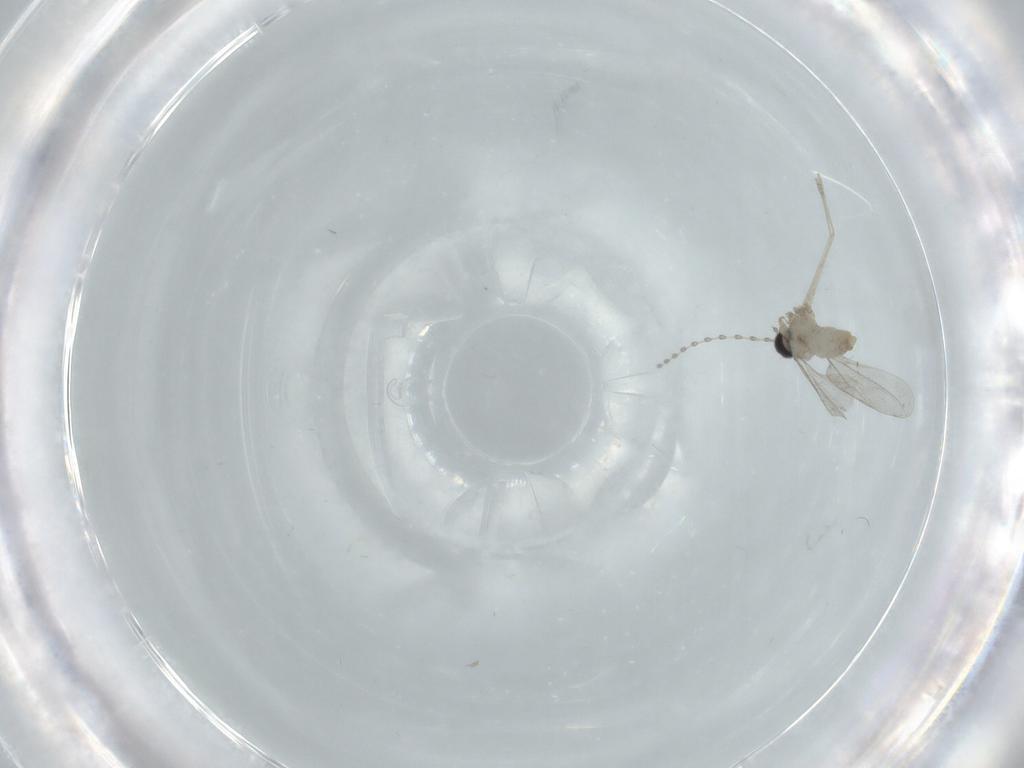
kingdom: Animalia
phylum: Arthropoda
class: Insecta
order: Diptera
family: Cecidomyiidae
